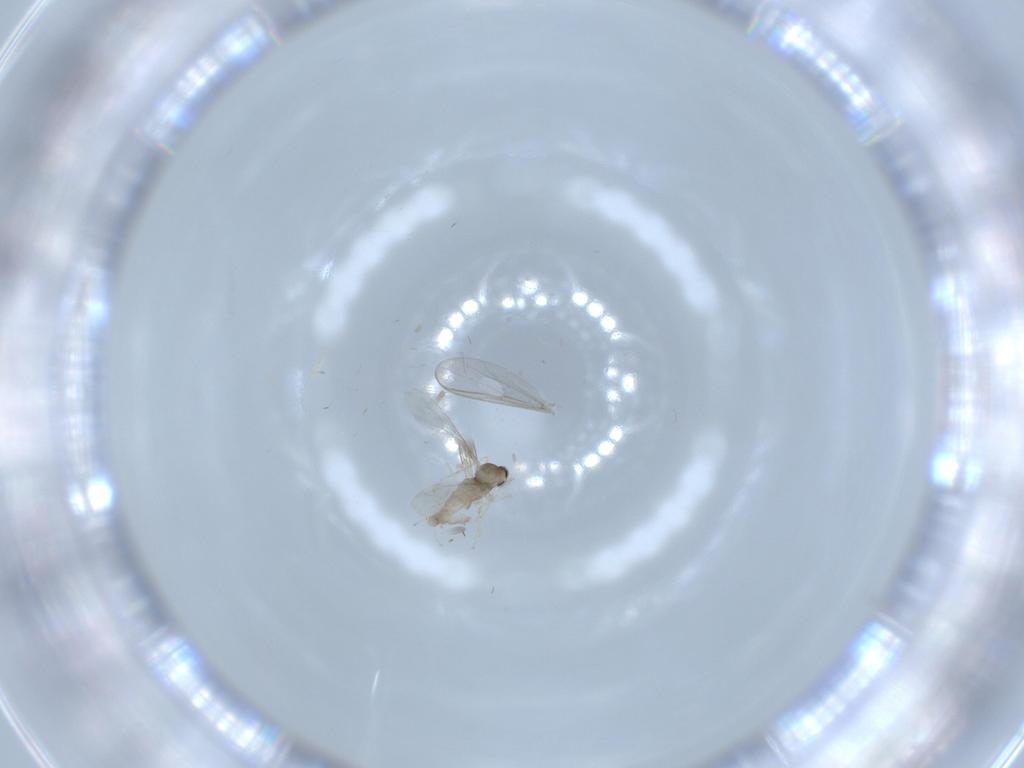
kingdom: Animalia
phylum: Arthropoda
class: Insecta
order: Diptera
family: Cecidomyiidae
